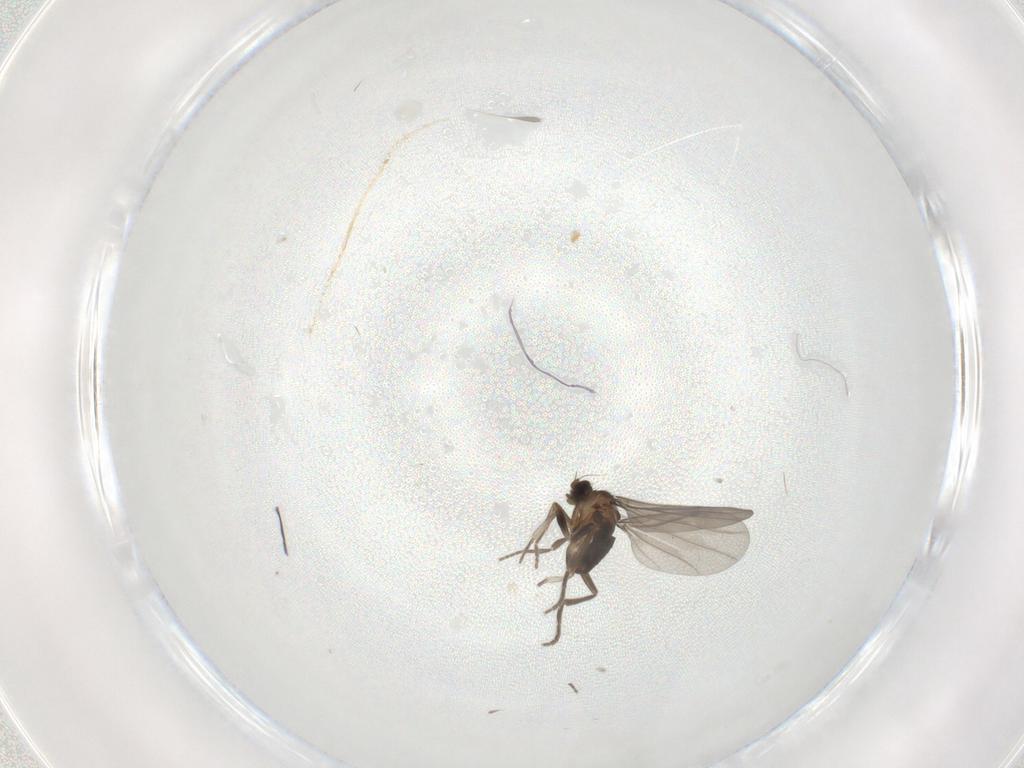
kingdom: Animalia
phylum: Arthropoda
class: Insecta
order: Diptera
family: Phoridae
